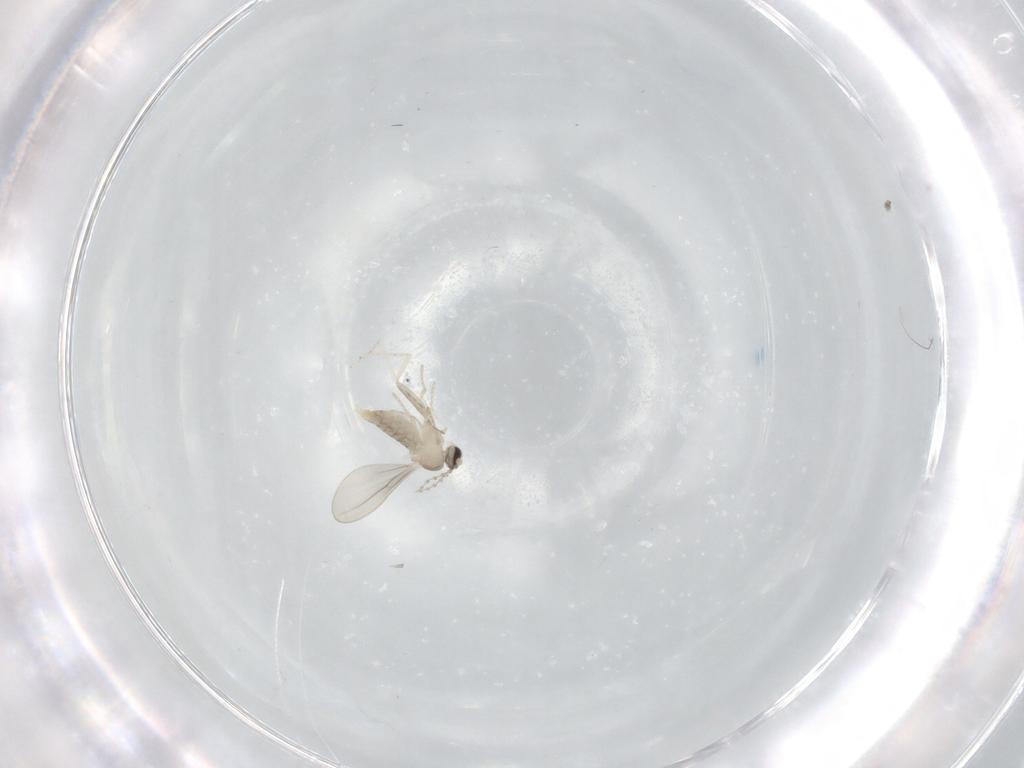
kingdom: Animalia
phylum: Arthropoda
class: Insecta
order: Diptera
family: Cecidomyiidae
